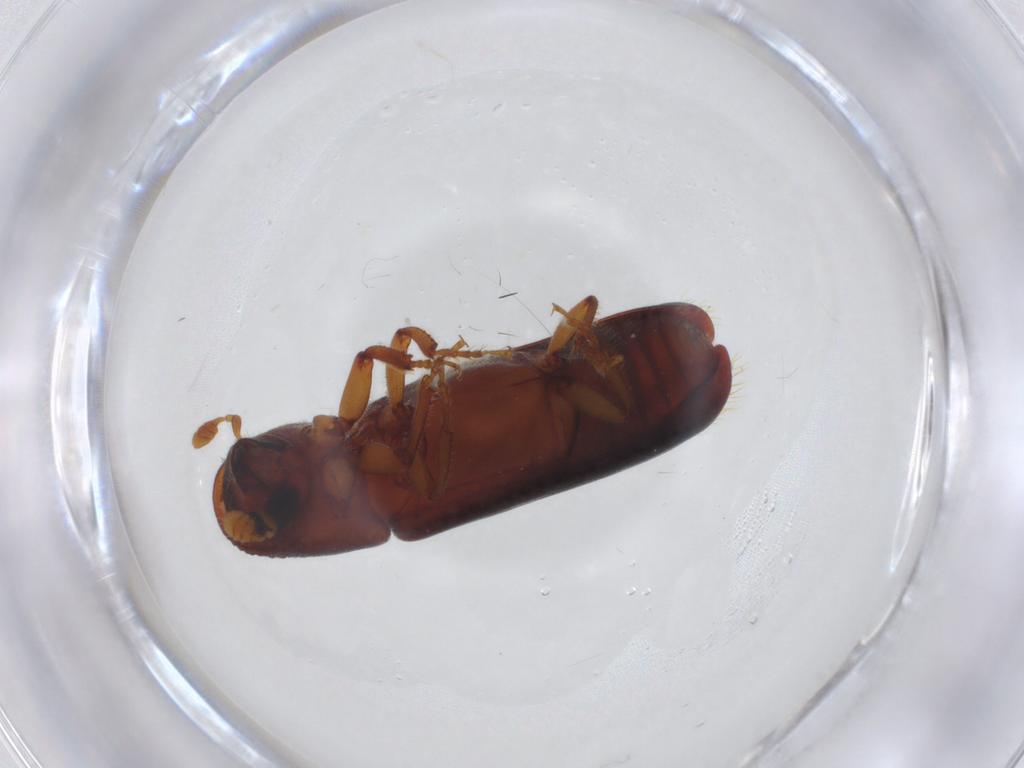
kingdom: Animalia
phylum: Arthropoda
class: Insecta
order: Coleoptera
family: Curculionidae
